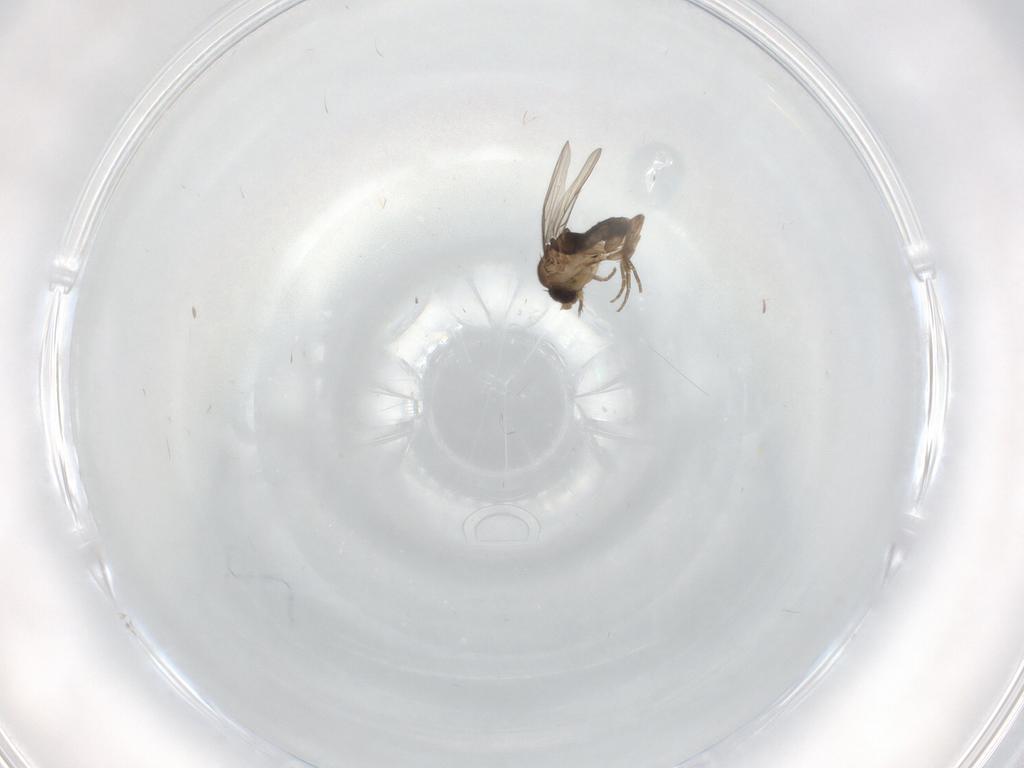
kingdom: Animalia
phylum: Arthropoda
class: Insecta
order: Diptera
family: Phoridae
